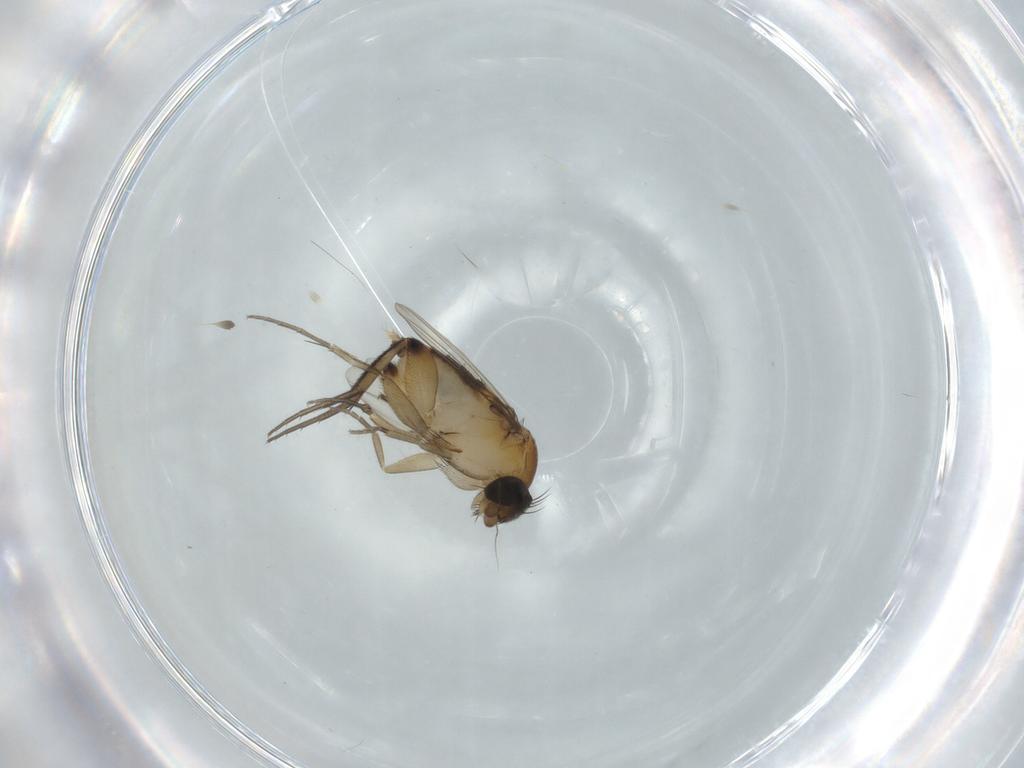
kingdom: Animalia
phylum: Arthropoda
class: Insecta
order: Diptera
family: Phoridae
